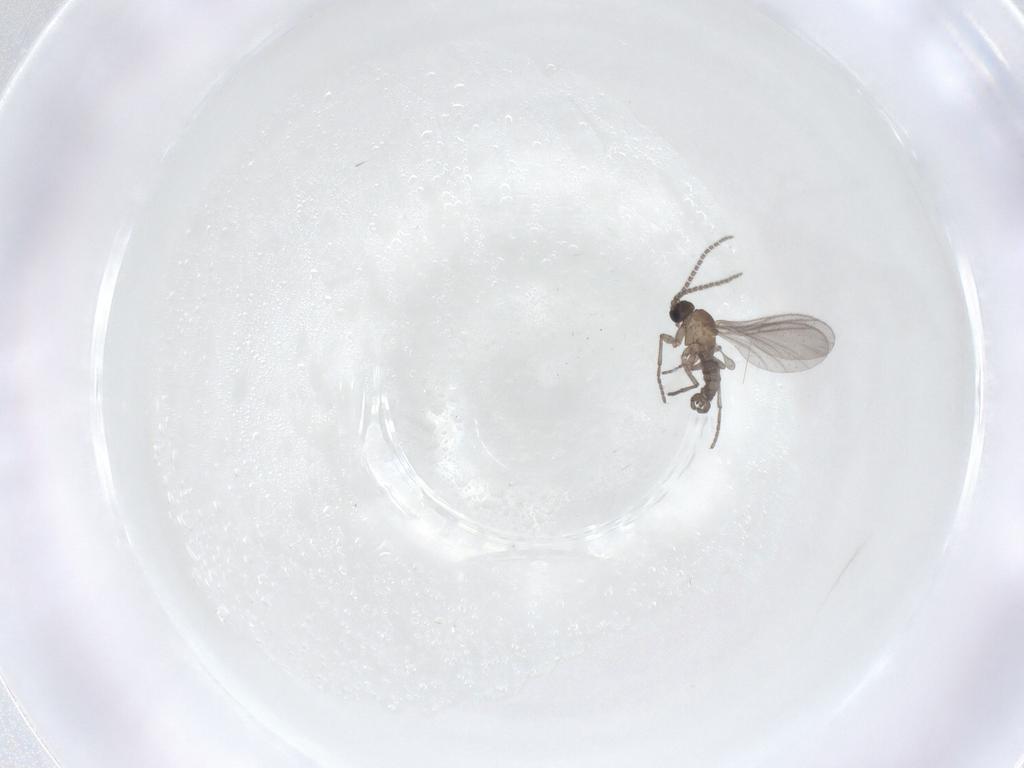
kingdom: Animalia
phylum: Arthropoda
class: Insecta
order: Diptera
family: Sciaridae
